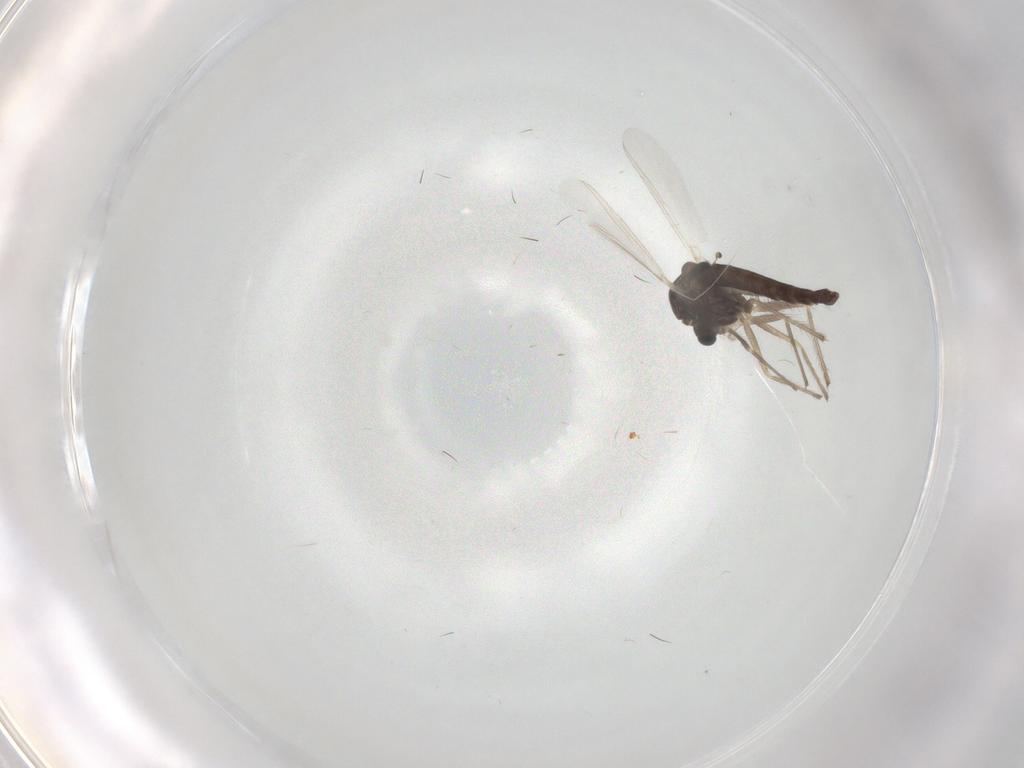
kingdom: Animalia
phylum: Arthropoda
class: Insecta
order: Diptera
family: Chironomidae
